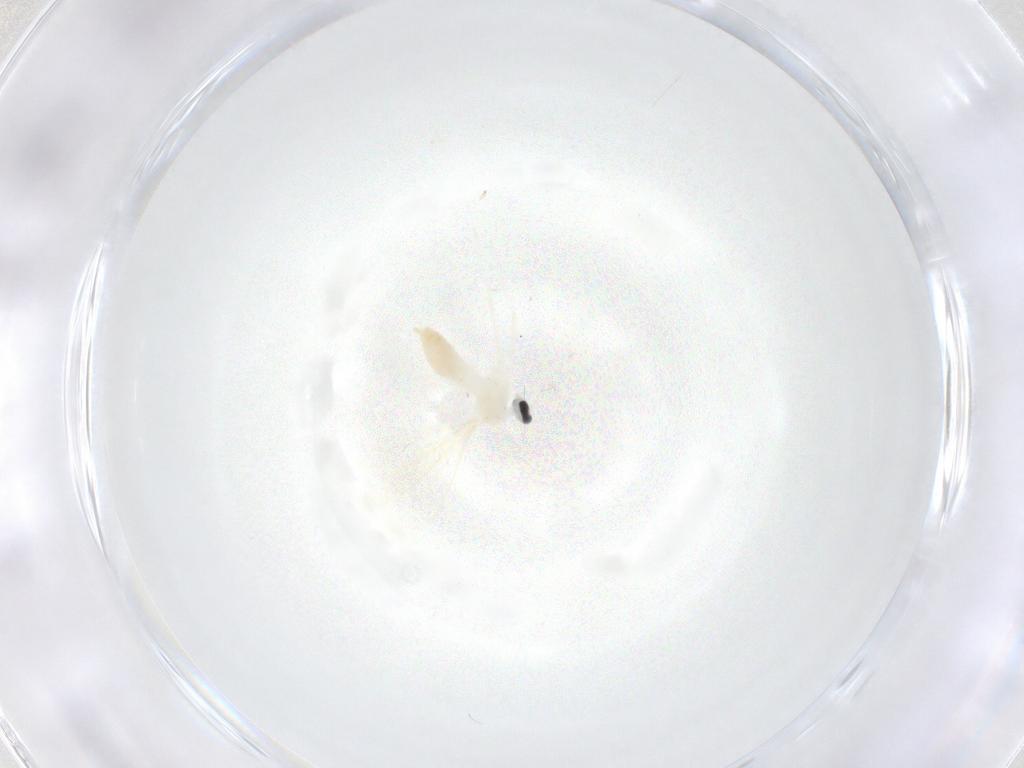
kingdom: Animalia
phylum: Arthropoda
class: Insecta
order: Diptera
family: Cecidomyiidae
